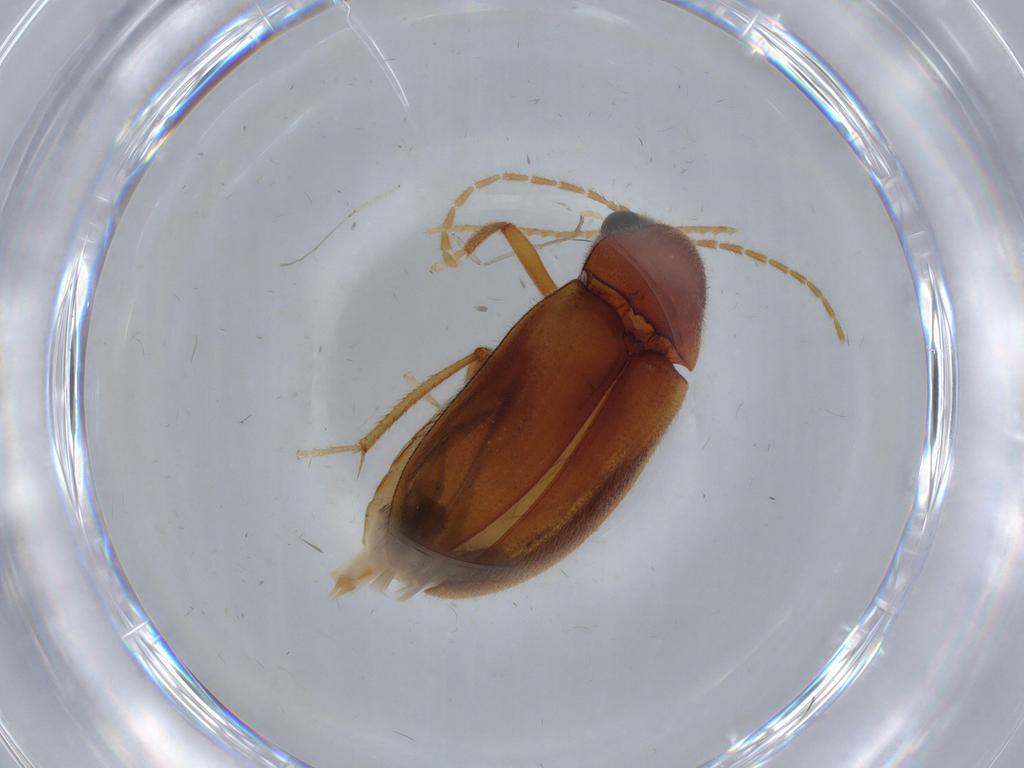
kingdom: Animalia
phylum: Arthropoda
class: Insecta
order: Coleoptera
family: Ptilodactylidae
